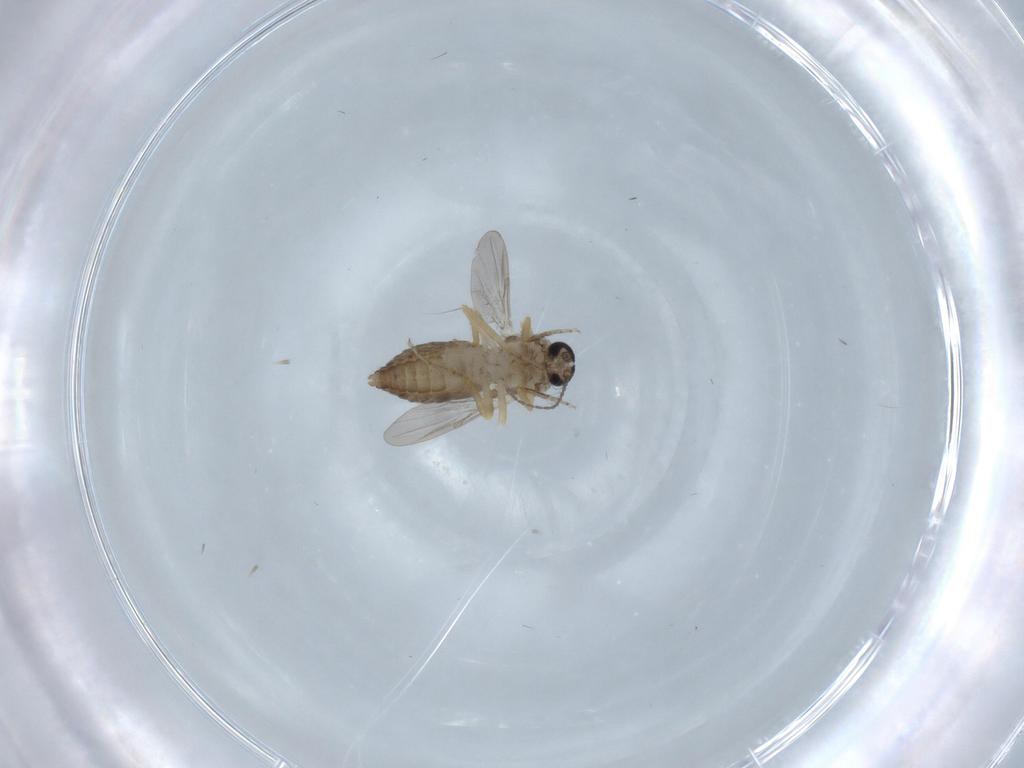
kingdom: Animalia
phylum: Arthropoda
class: Insecta
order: Diptera
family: Ceratopogonidae
